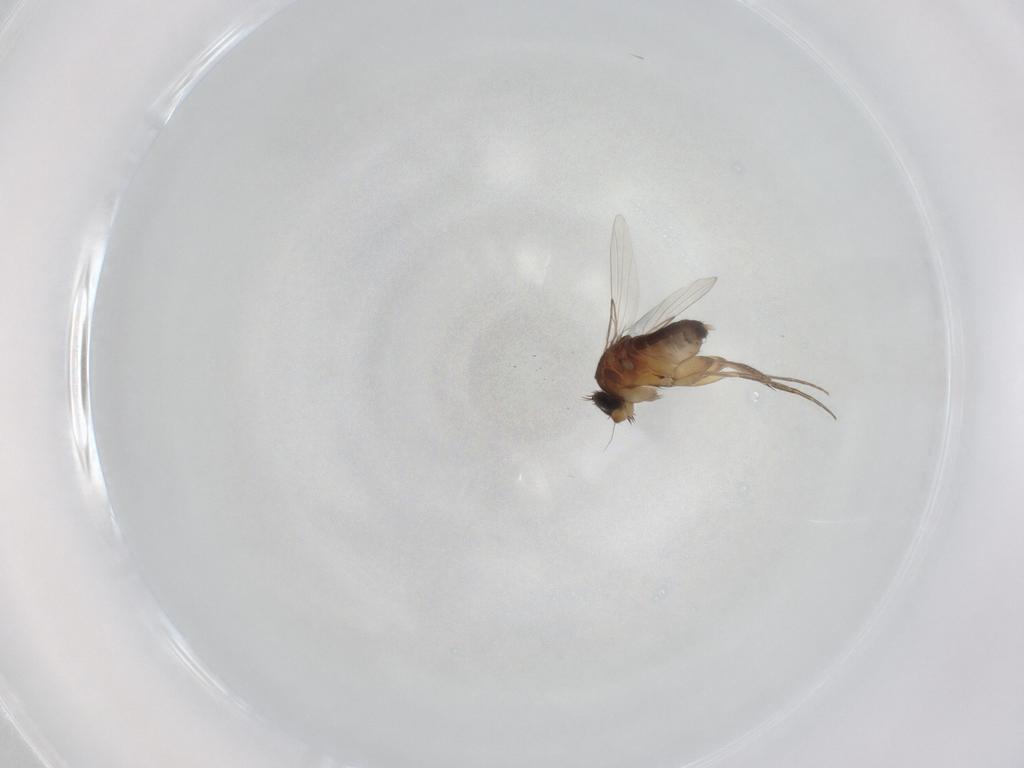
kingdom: Animalia
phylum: Arthropoda
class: Insecta
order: Diptera
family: Phoridae
